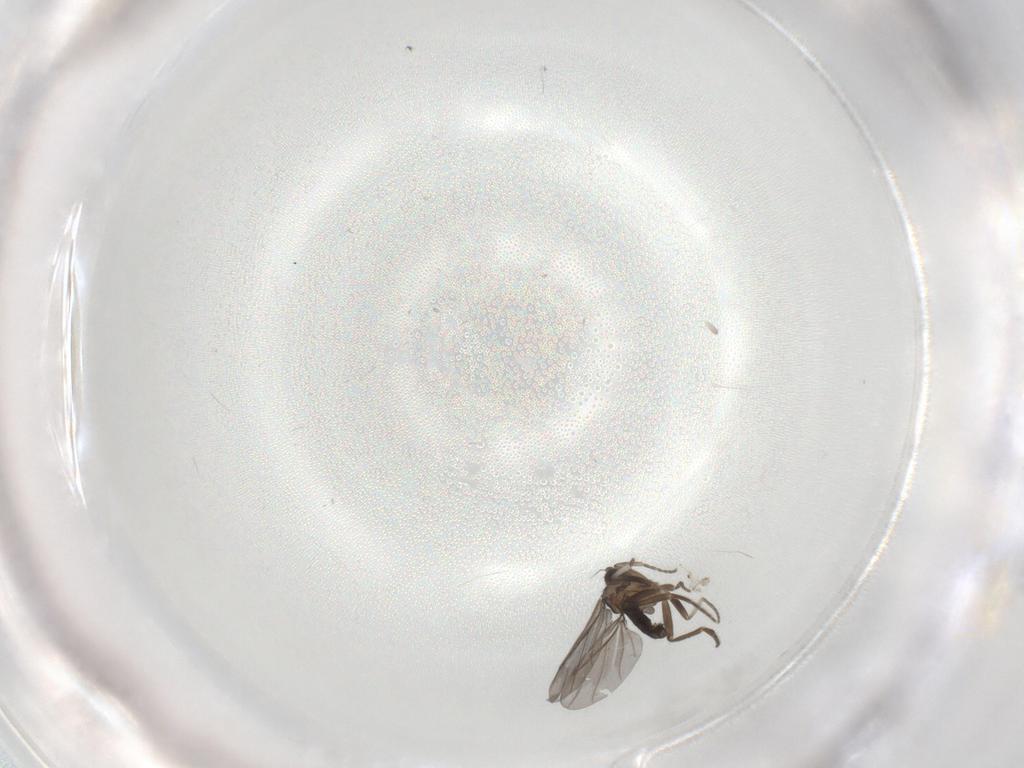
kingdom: Animalia
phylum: Arthropoda
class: Insecta
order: Diptera
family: Phoridae
